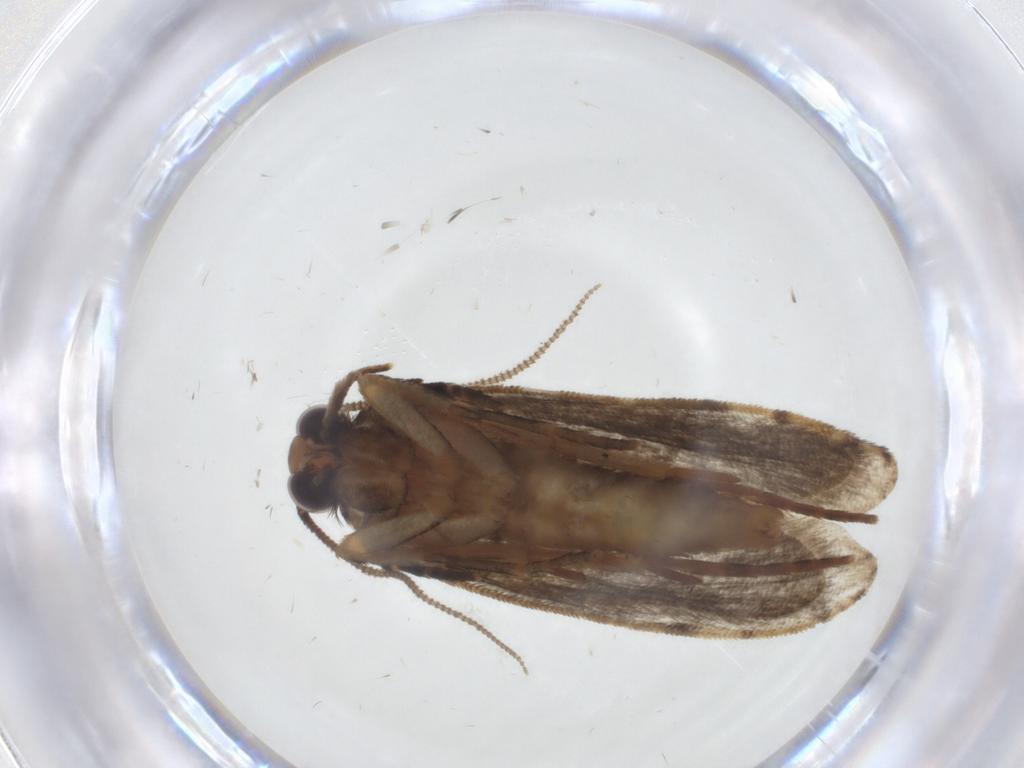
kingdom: Animalia
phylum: Arthropoda
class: Insecta
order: Lepidoptera
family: Tineidae
